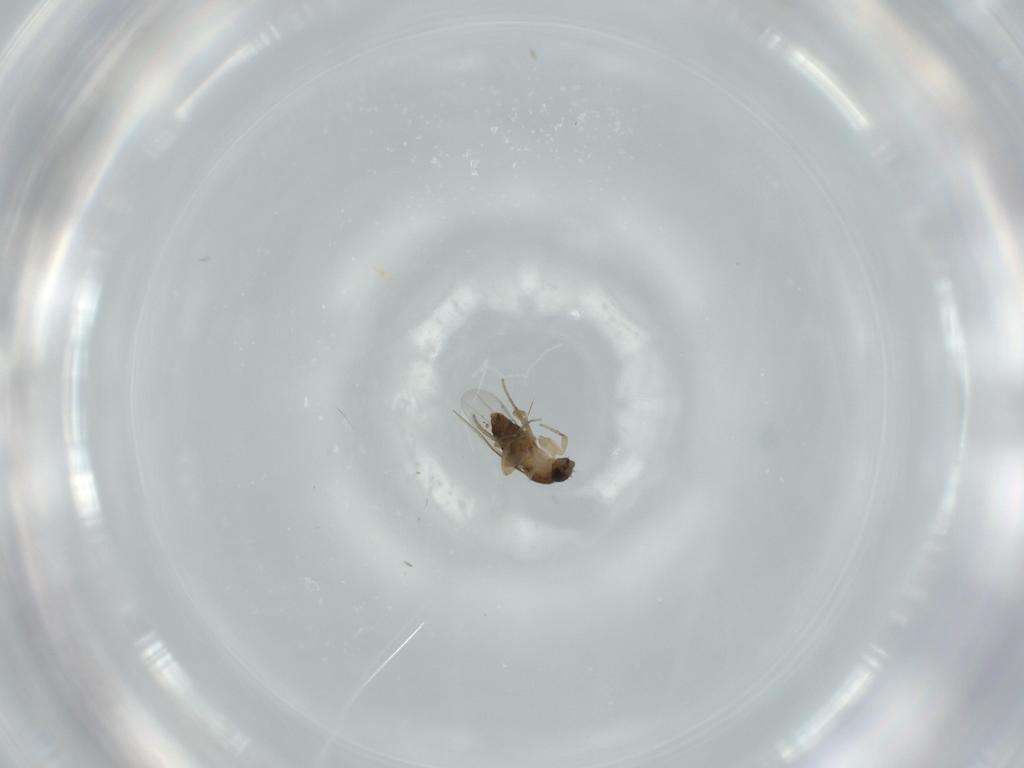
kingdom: Animalia
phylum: Arthropoda
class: Insecta
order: Diptera
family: Phoridae
